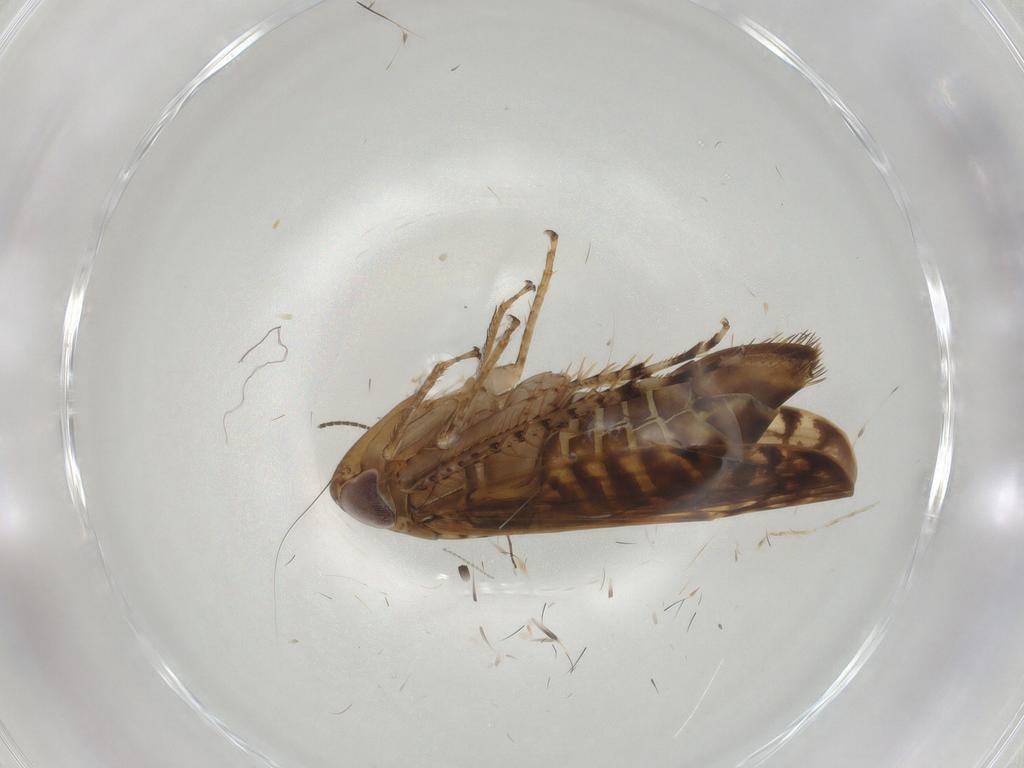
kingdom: Animalia
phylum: Arthropoda
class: Insecta
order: Hemiptera
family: Cicadellidae
